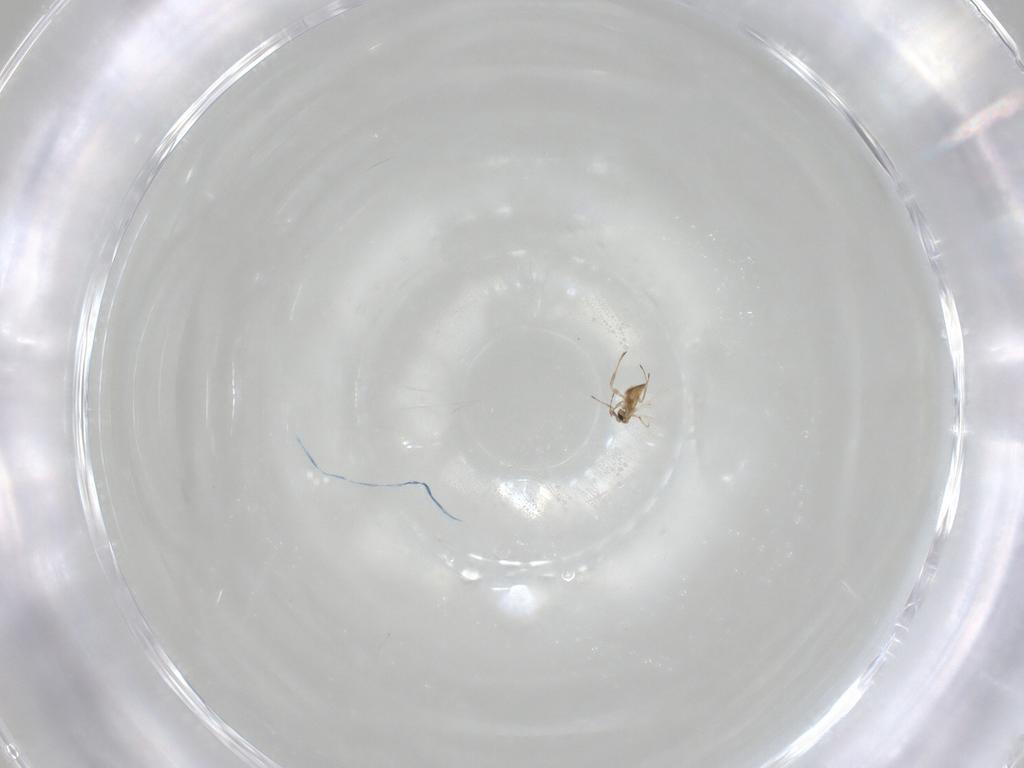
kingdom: Animalia
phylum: Arthropoda
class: Insecta
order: Hymenoptera
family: Trichogrammatidae
